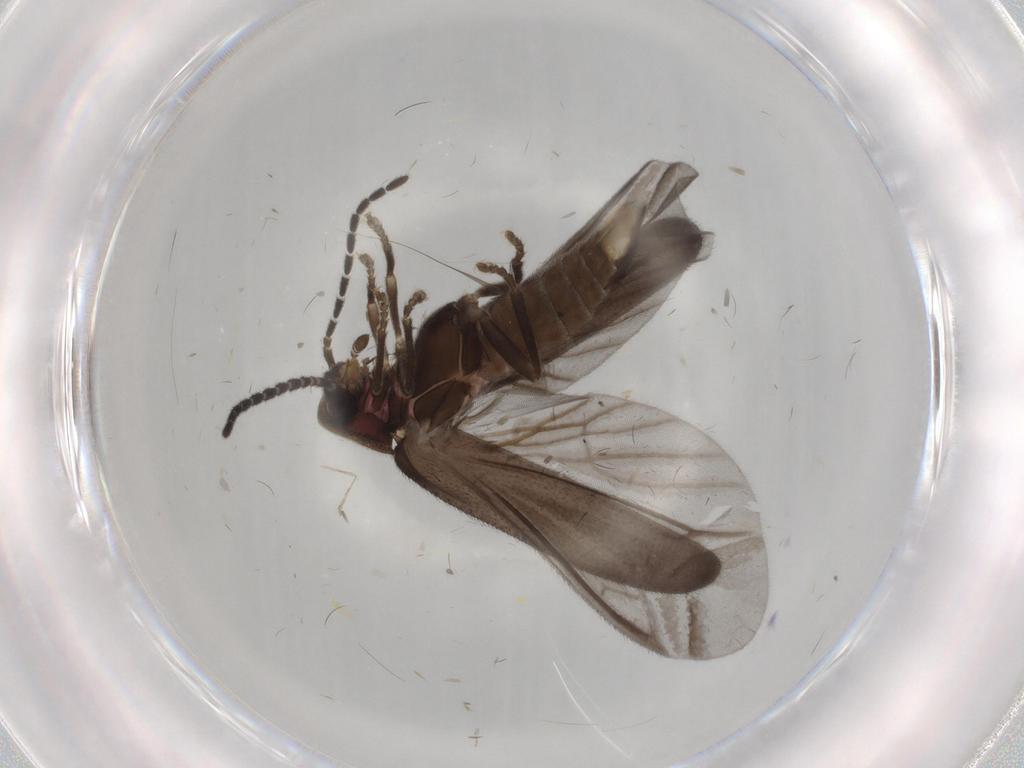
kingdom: Animalia
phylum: Arthropoda
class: Insecta
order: Coleoptera
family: Lampyridae
